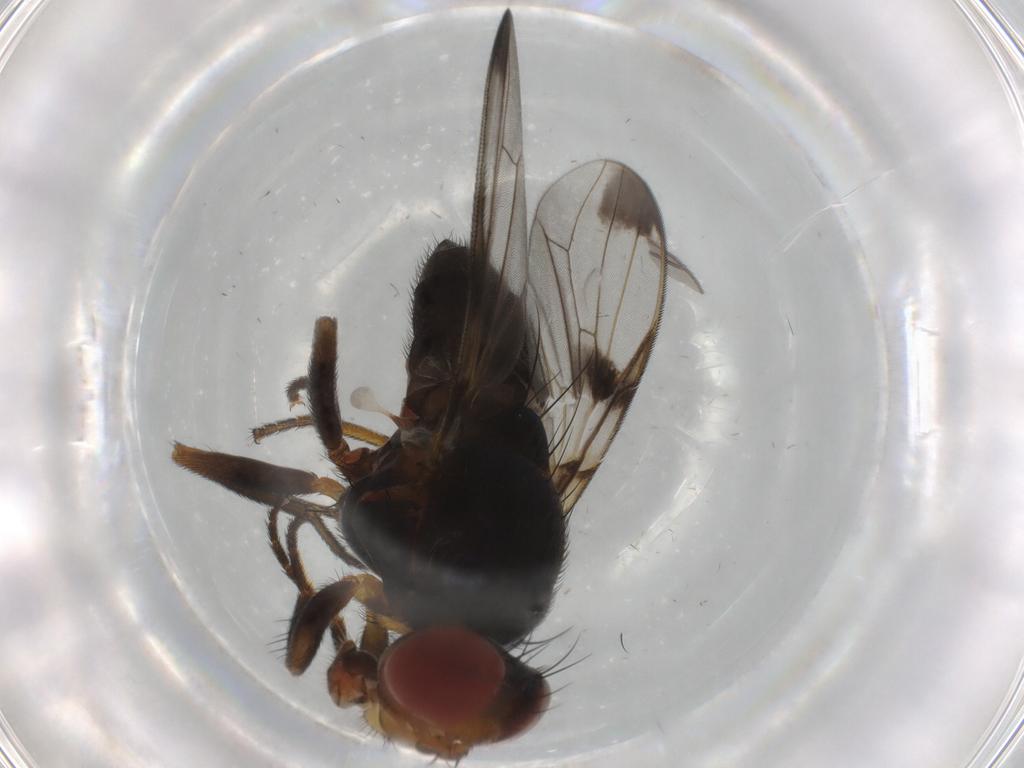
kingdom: Animalia
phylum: Arthropoda
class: Insecta
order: Diptera
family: Ulidiidae
